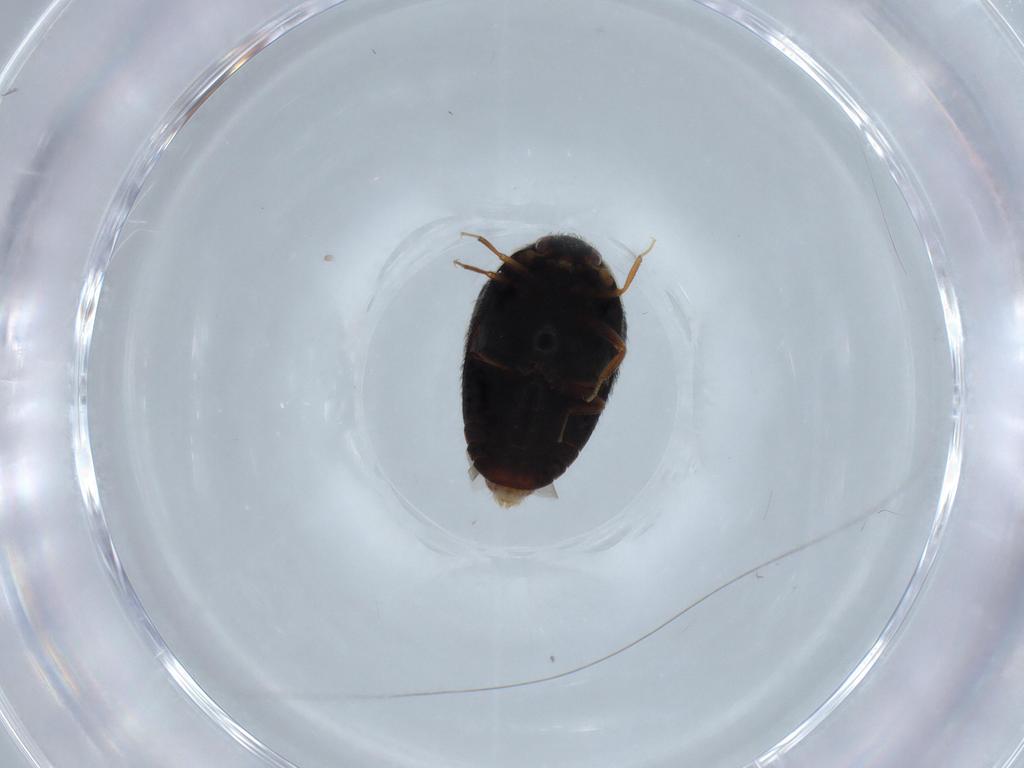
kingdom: Animalia
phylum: Arthropoda
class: Insecta
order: Coleoptera
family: Dermestidae
